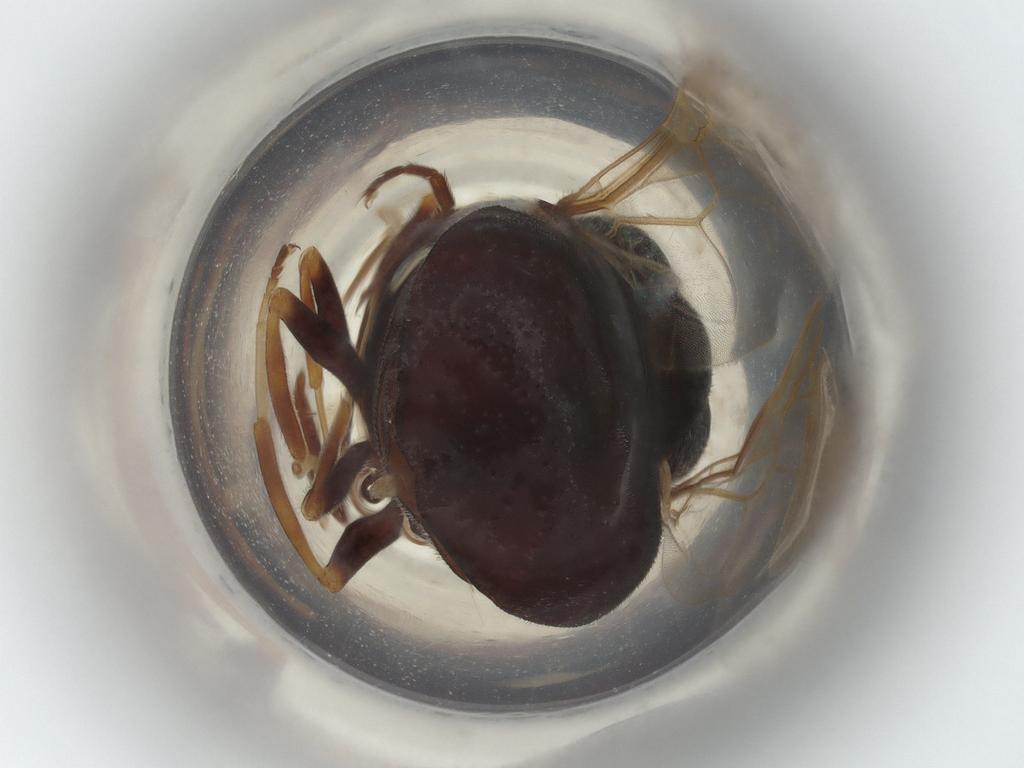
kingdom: Animalia
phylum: Arthropoda
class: Insecta
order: Diptera
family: Stratiomyidae
